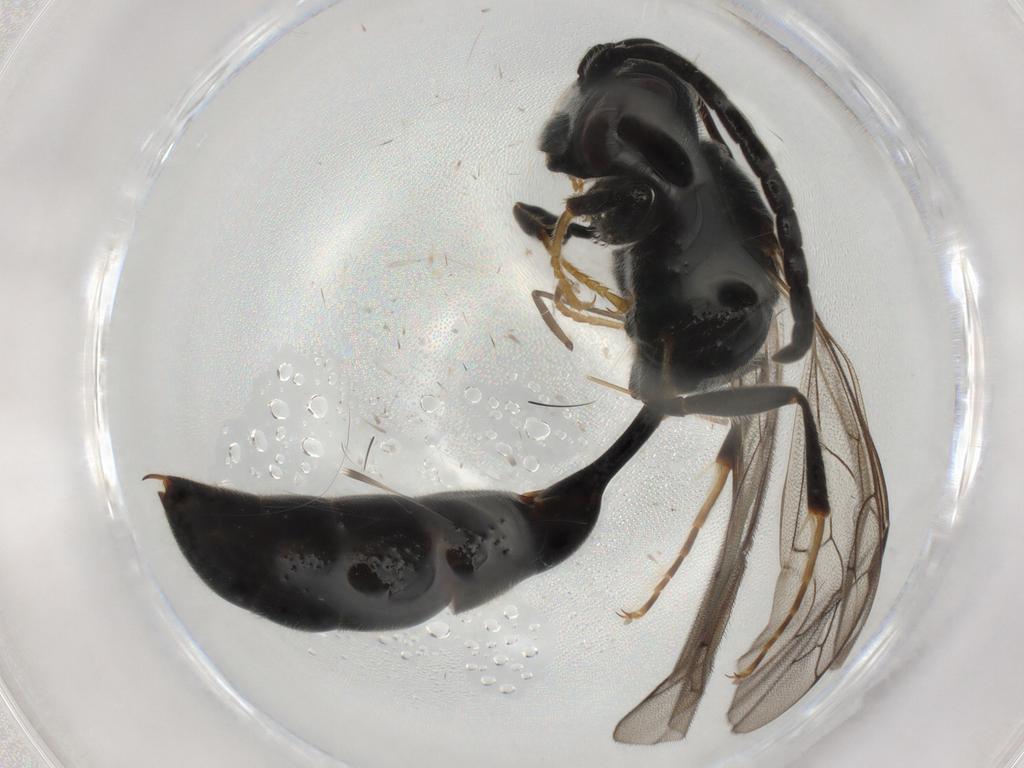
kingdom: Animalia
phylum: Arthropoda
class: Insecta
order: Hymenoptera
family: Crabronidae
